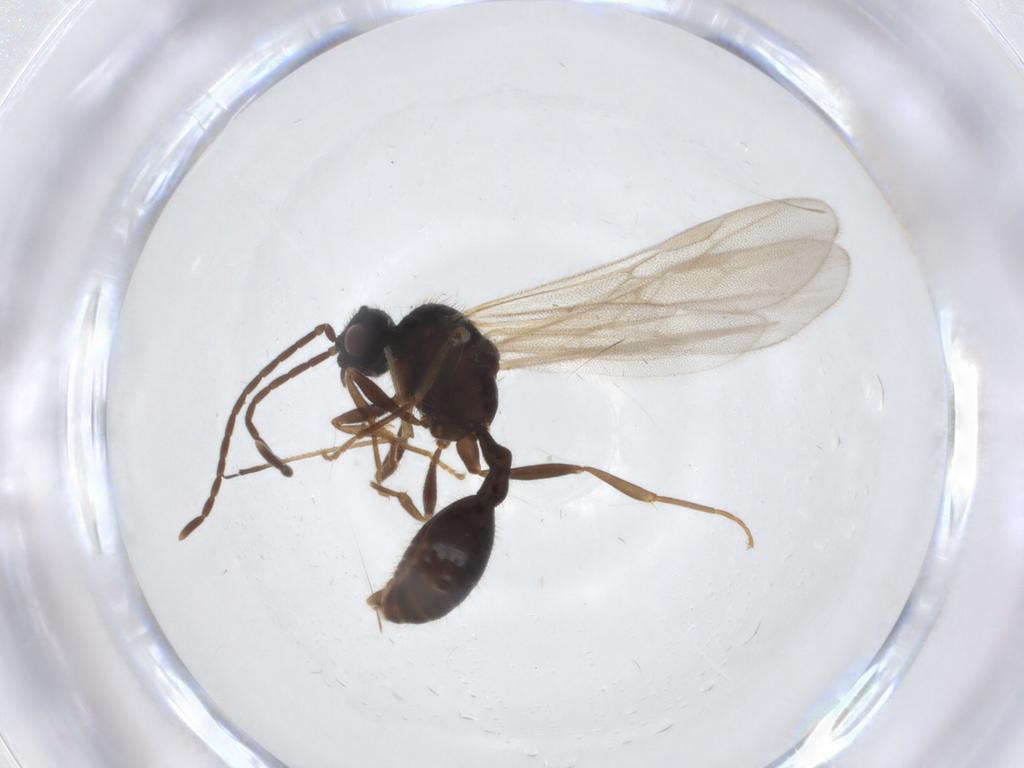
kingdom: Animalia
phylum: Arthropoda
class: Insecta
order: Hymenoptera
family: Formicidae
